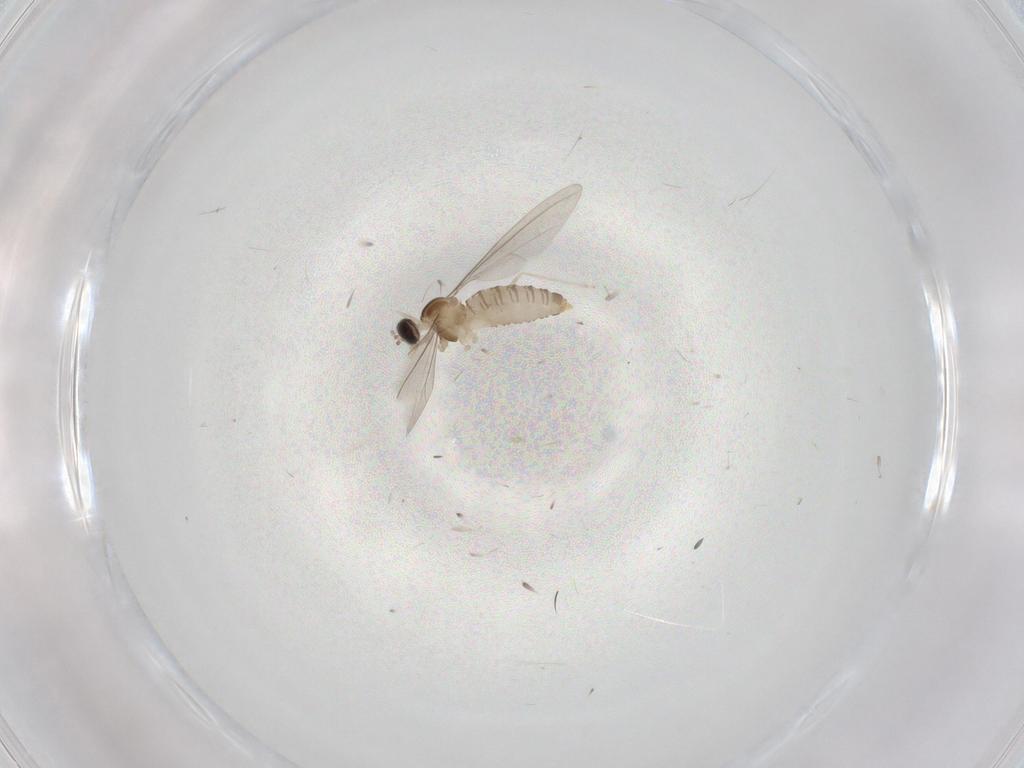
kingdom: Animalia
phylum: Arthropoda
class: Insecta
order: Diptera
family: Cecidomyiidae
